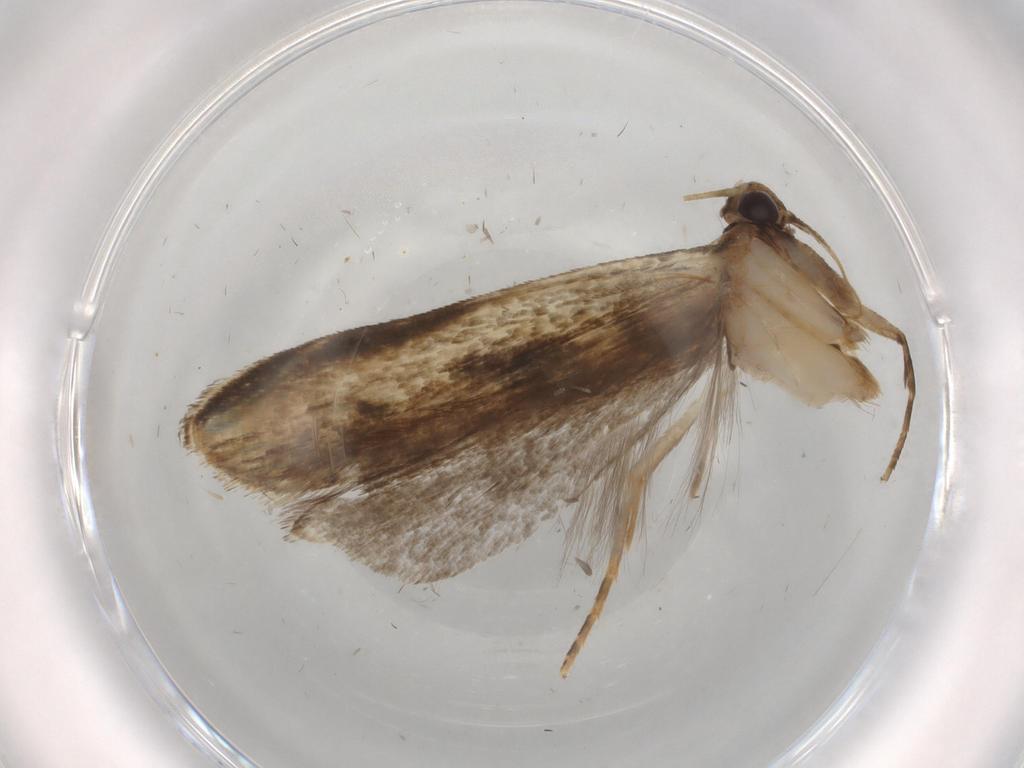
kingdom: Animalia
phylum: Arthropoda
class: Insecta
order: Lepidoptera
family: Gelechiidae
